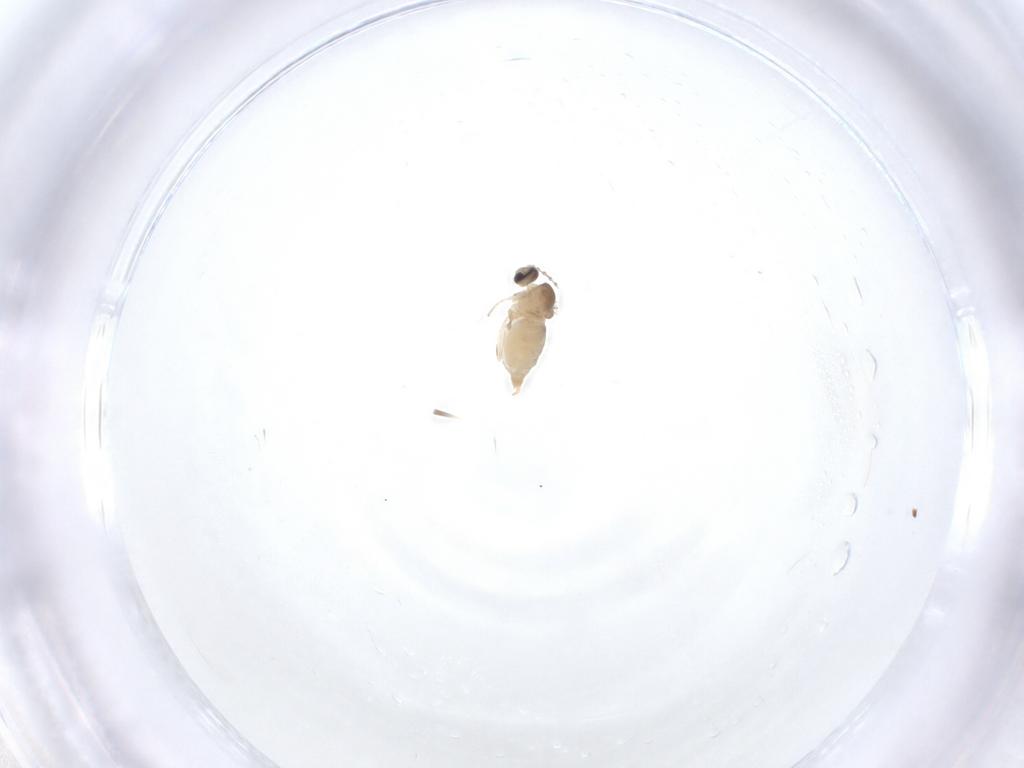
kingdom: Animalia
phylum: Arthropoda
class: Insecta
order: Diptera
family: Cecidomyiidae
